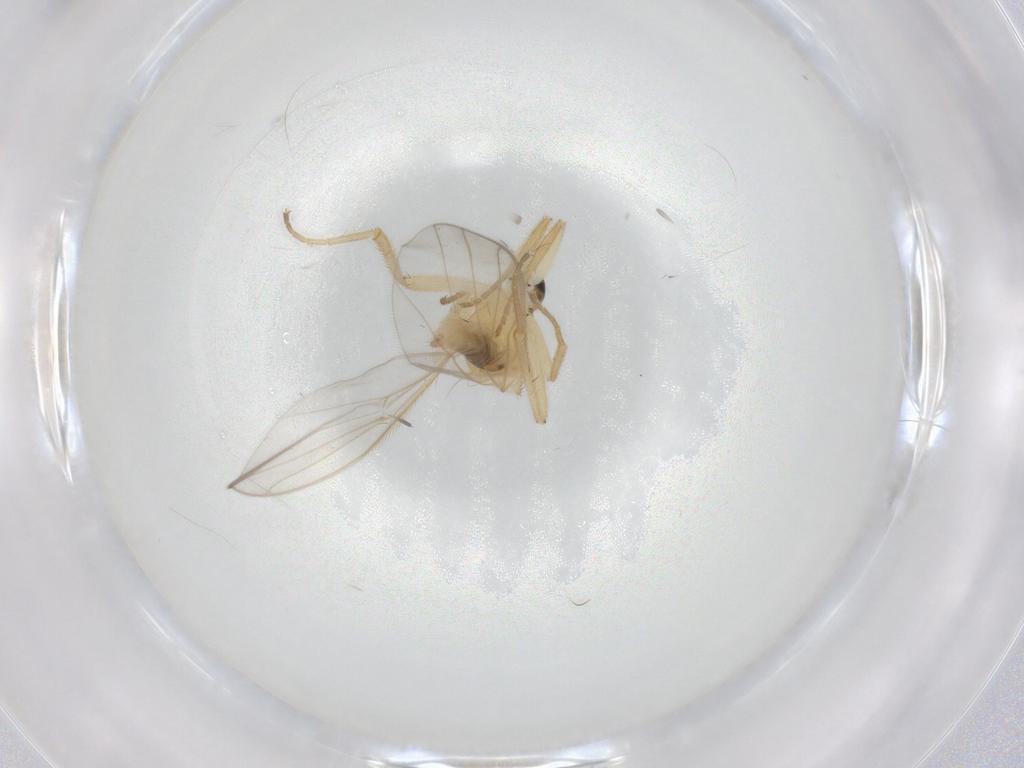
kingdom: Animalia
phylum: Arthropoda
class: Insecta
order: Diptera
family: Hybotidae
